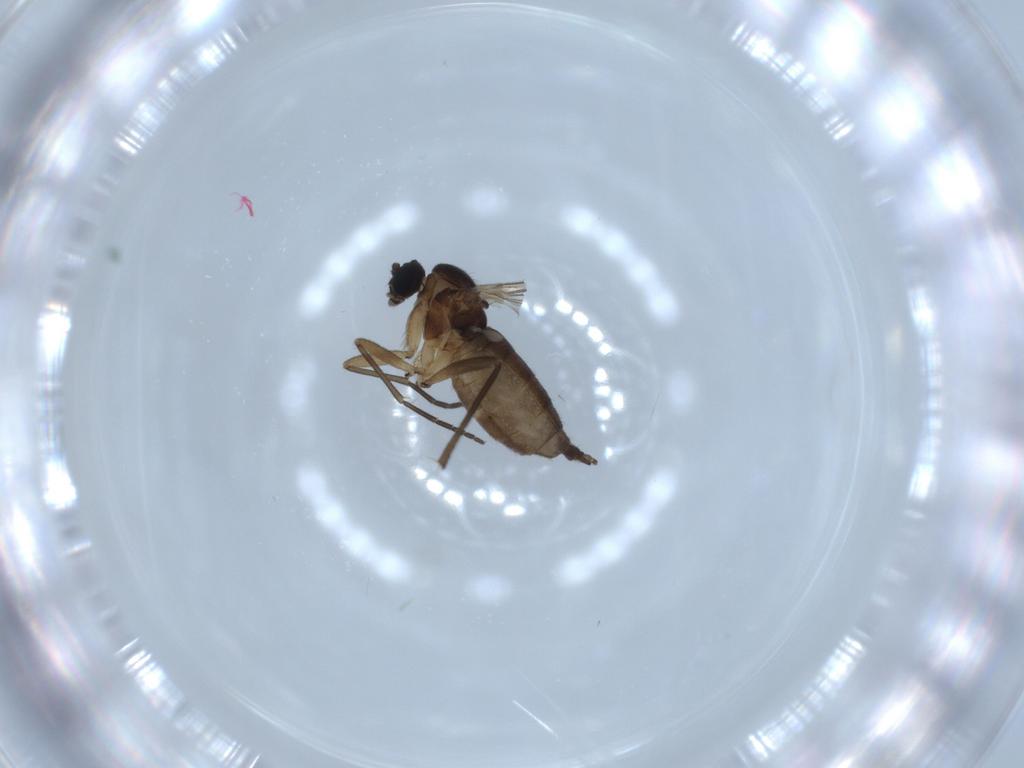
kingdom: Animalia
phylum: Arthropoda
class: Insecta
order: Diptera
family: Sciaridae
